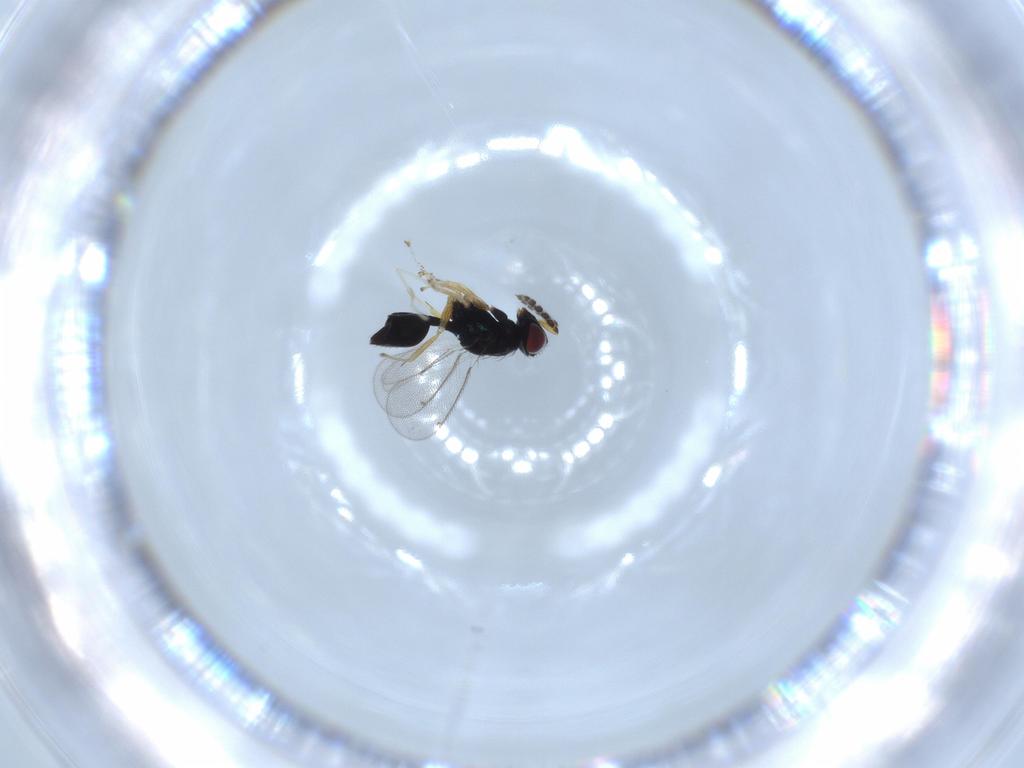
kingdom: Animalia
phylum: Arthropoda
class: Insecta
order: Hymenoptera
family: Formicidae
